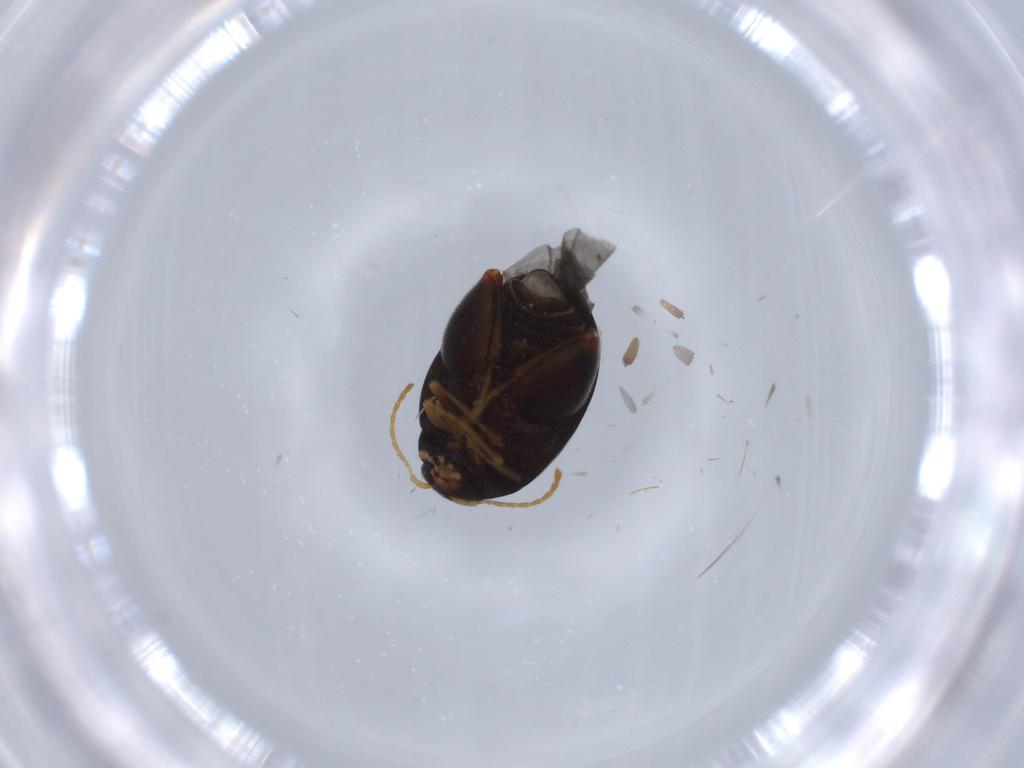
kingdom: Animalia
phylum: Arthropoda
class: Insecta
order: Coleoptera
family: Chrysomelidae
